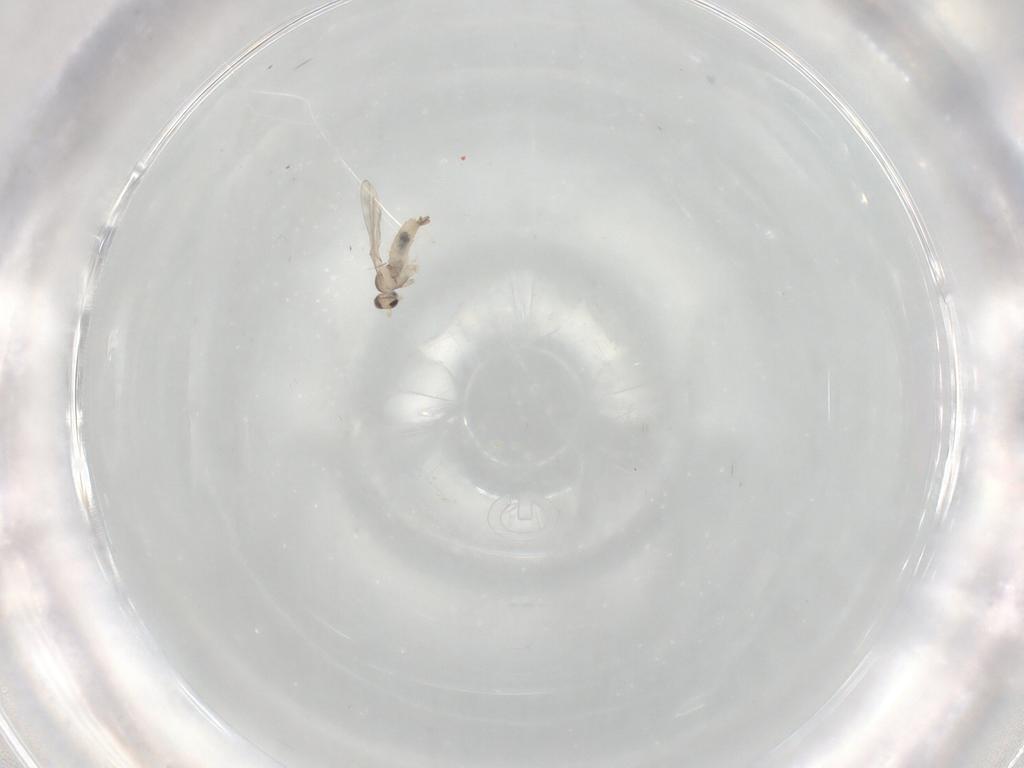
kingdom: Animalia
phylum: Arthropoda
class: Insecta
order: Diptera
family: Cecidomyiidae
